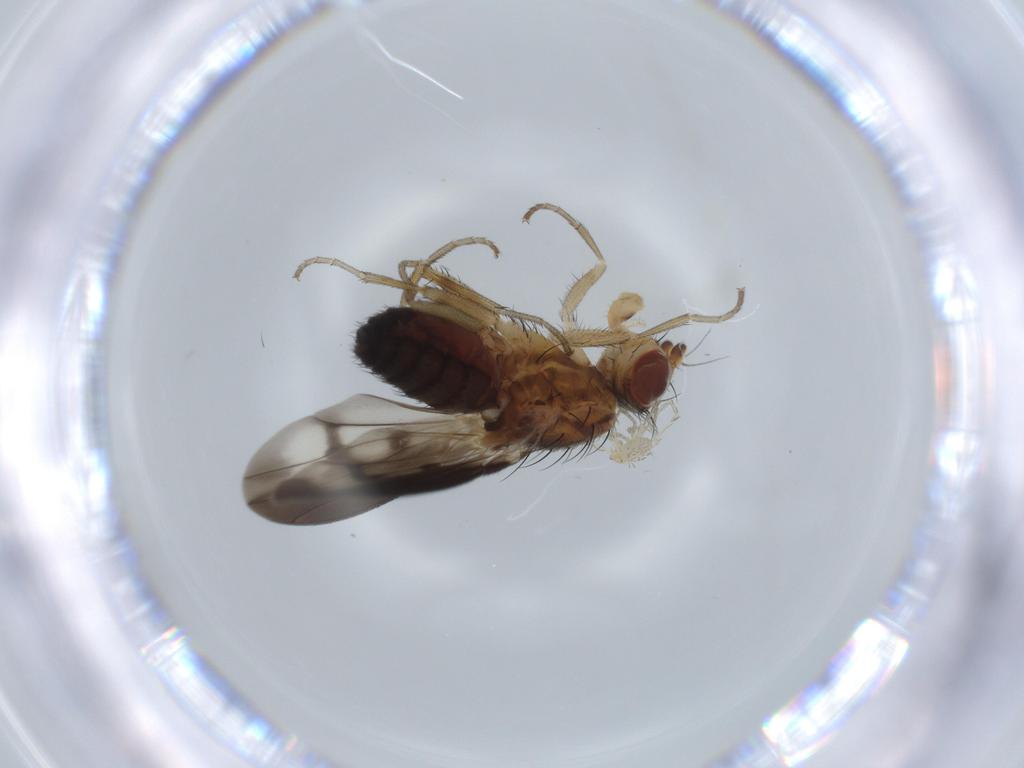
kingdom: Animalia
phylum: Arthropoda
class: Insecta
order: Diptera
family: Heleomyzidae
